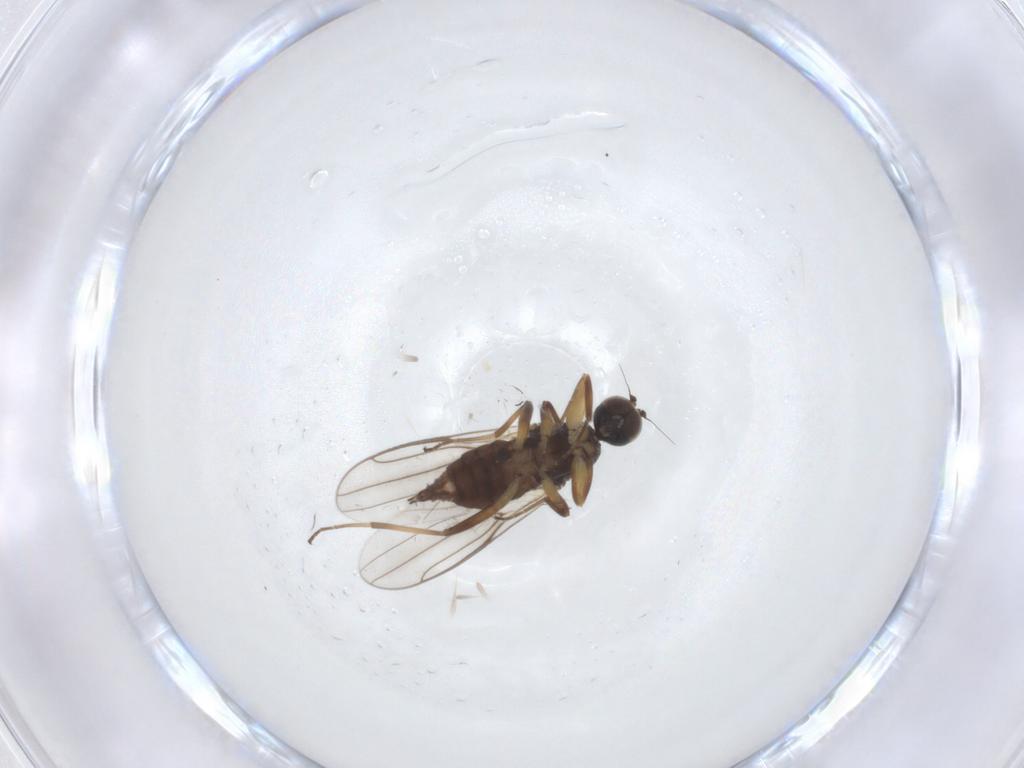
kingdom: Animalia
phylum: Arthropoda
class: Insecta
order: Diptera
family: Hybotidae
